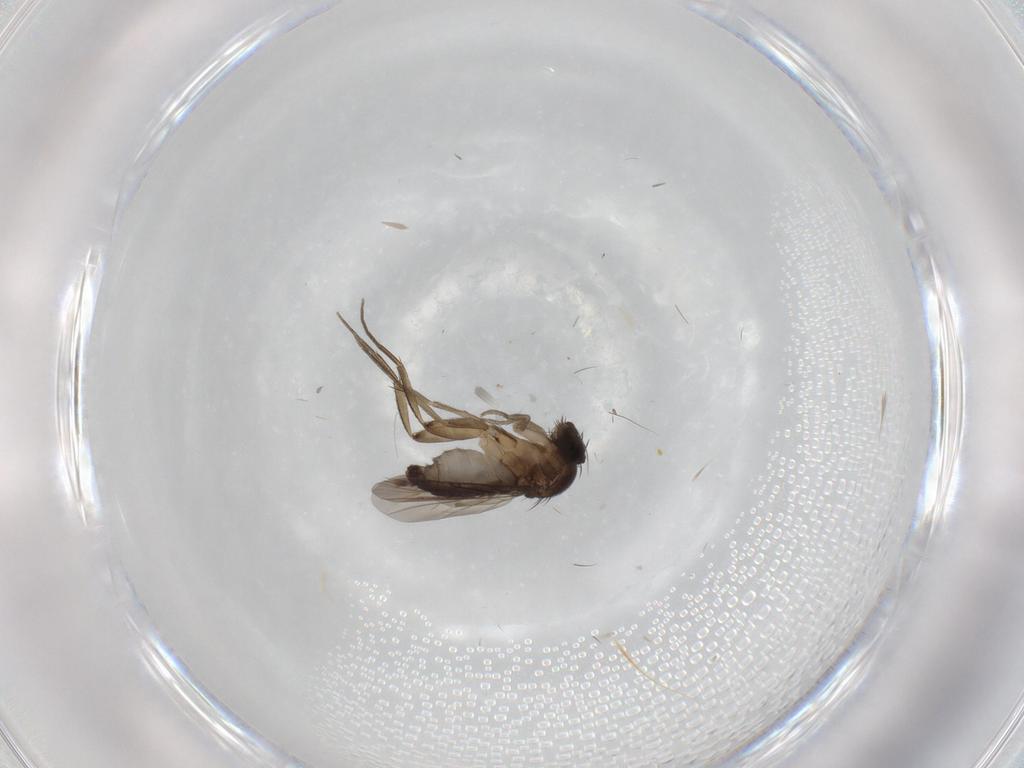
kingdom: Animalia
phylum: Arthropoda
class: Insecta
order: Diptera
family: Phoridae
